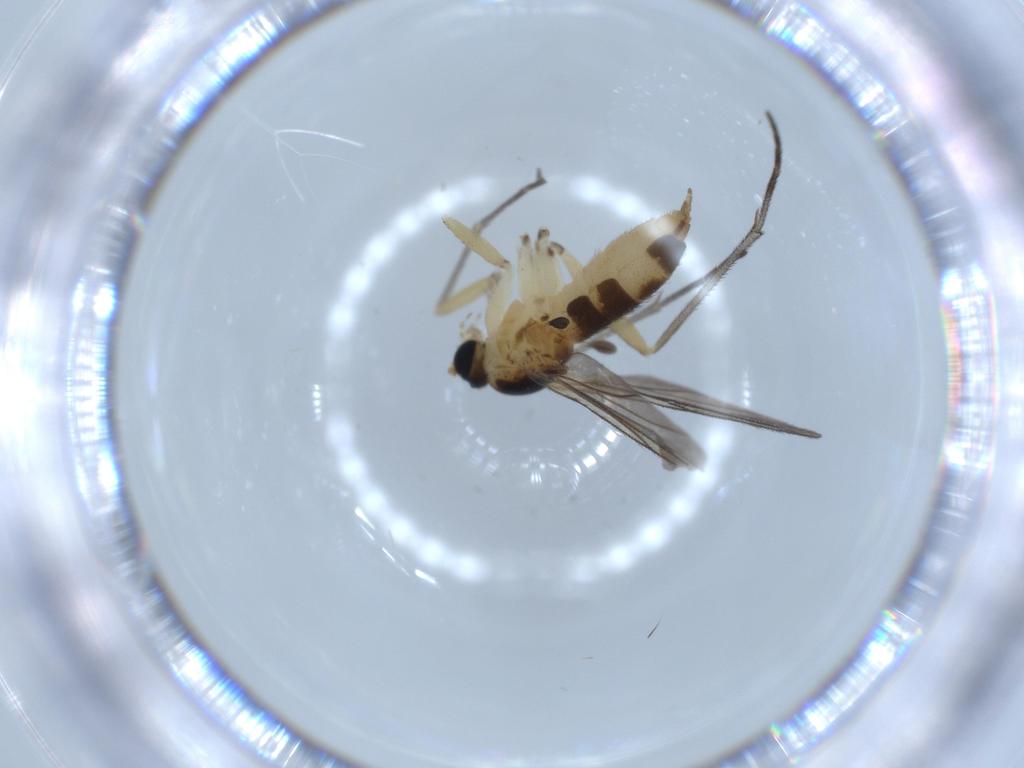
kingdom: Animalia
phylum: Arthropoda
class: Insecta
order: Diptera
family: Sciaridae
